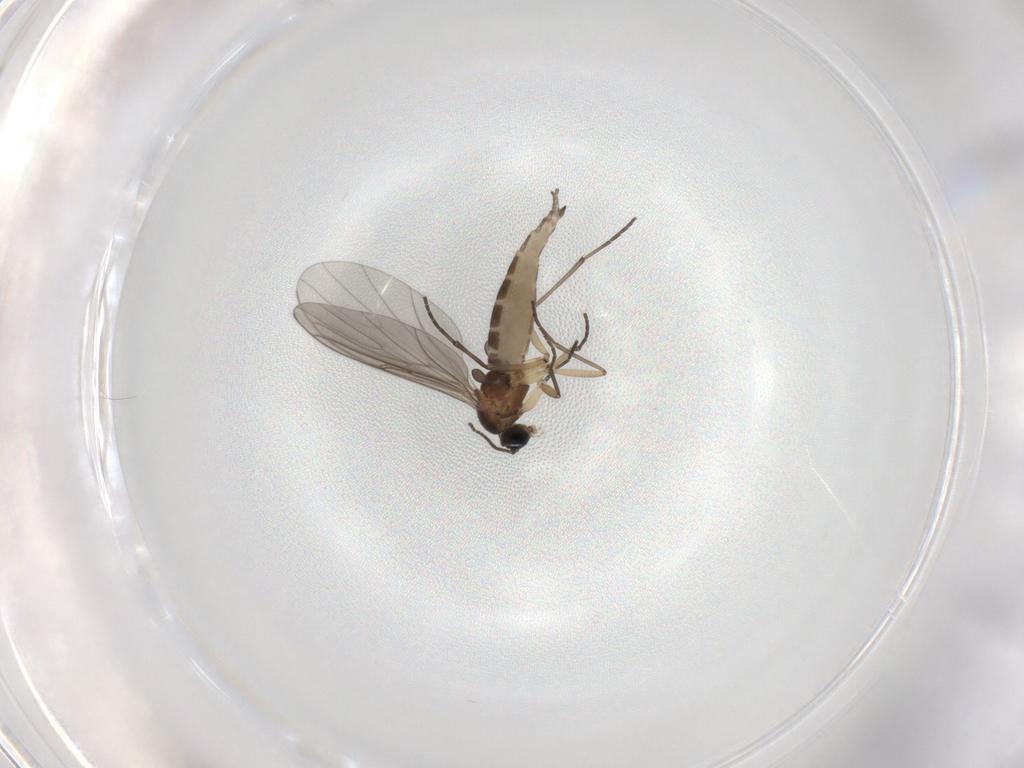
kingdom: Animalia
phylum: Arthropoda
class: Insecta
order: Diptera
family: Sciaridae
